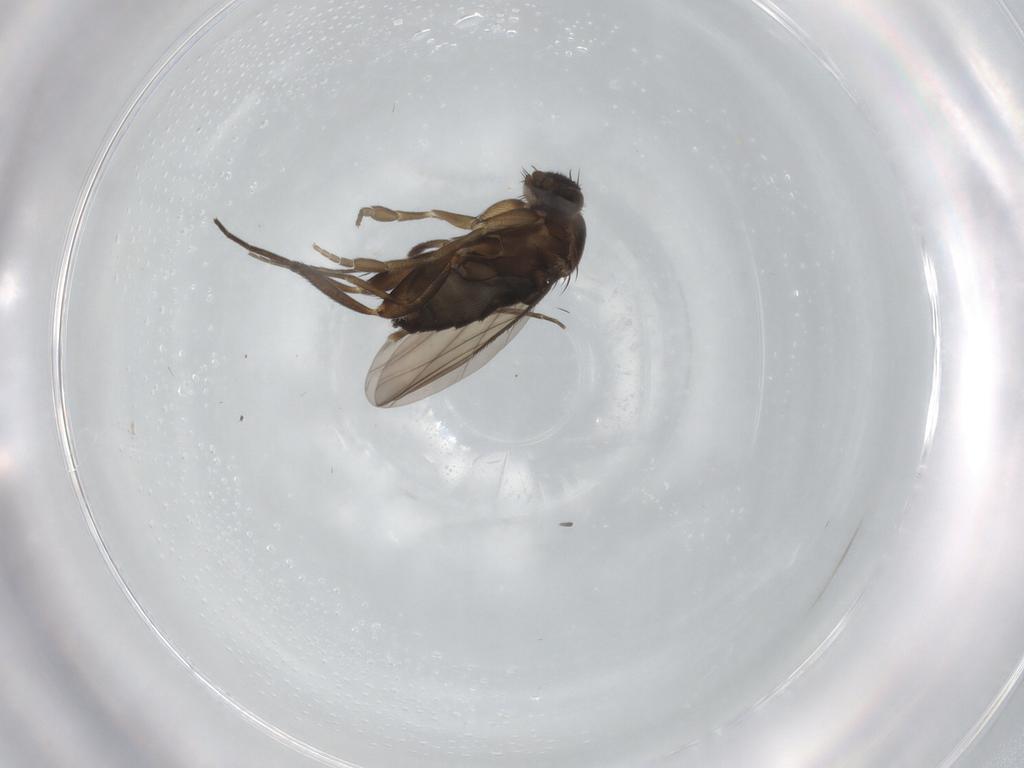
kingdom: Animalia
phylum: Arthropoda
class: Insecta
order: Diptera
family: Phoridae
